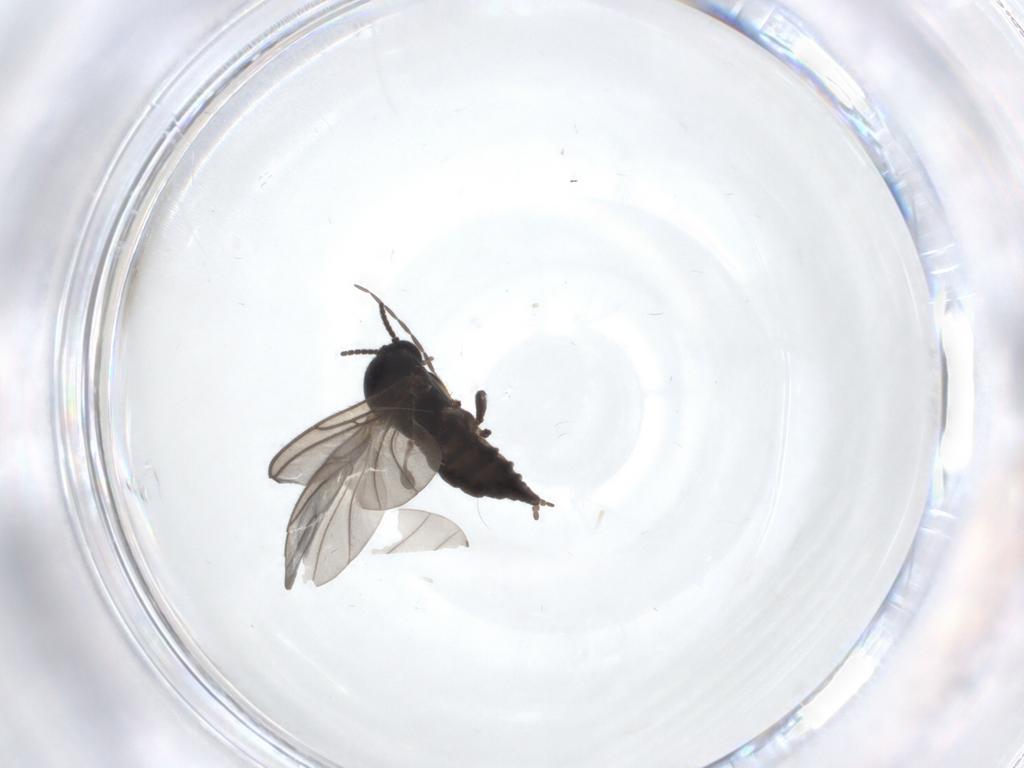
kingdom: Animalia
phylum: Arthropoda
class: Insecta
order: Diptera
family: Limoniidae
